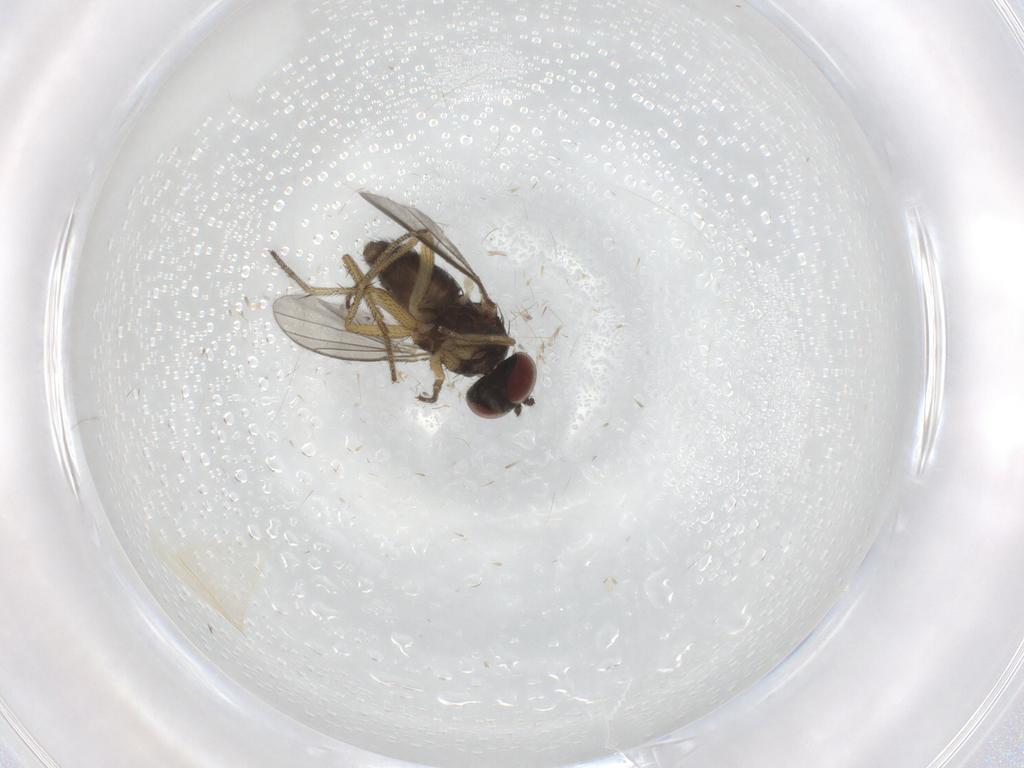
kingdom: Animalia
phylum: Arthropoda
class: Insecta
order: Diptera
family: Dolichopodidae
